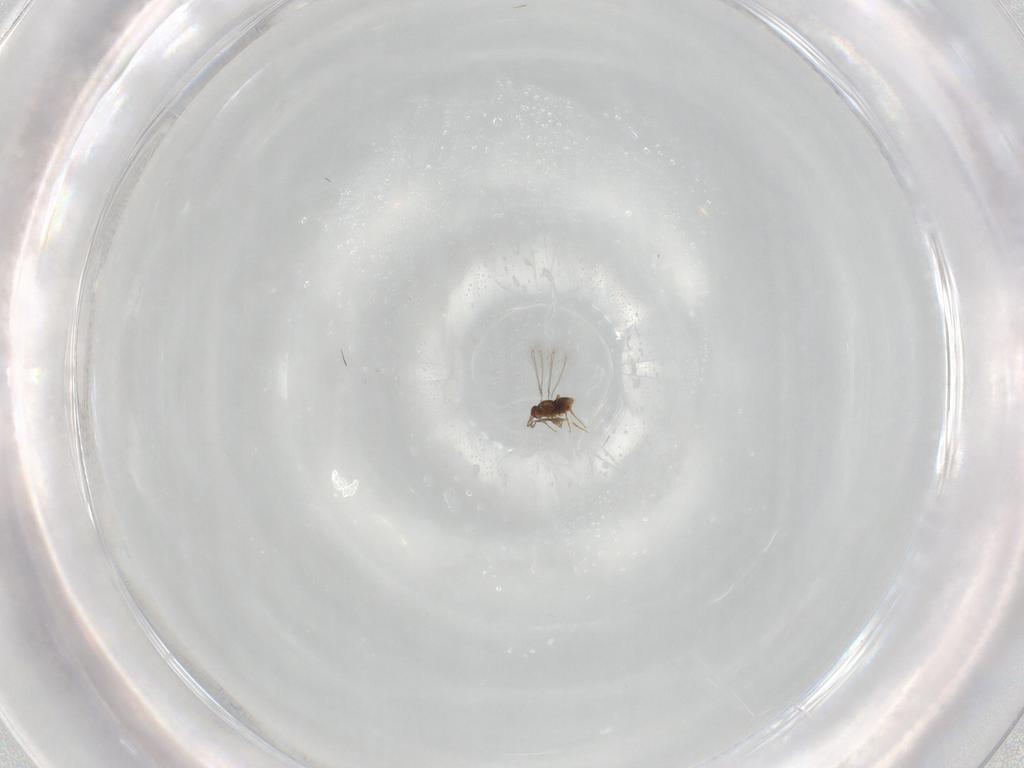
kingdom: Animalia
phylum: Arthropoda
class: Insecta
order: Hymenoptera
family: Mymaridae
